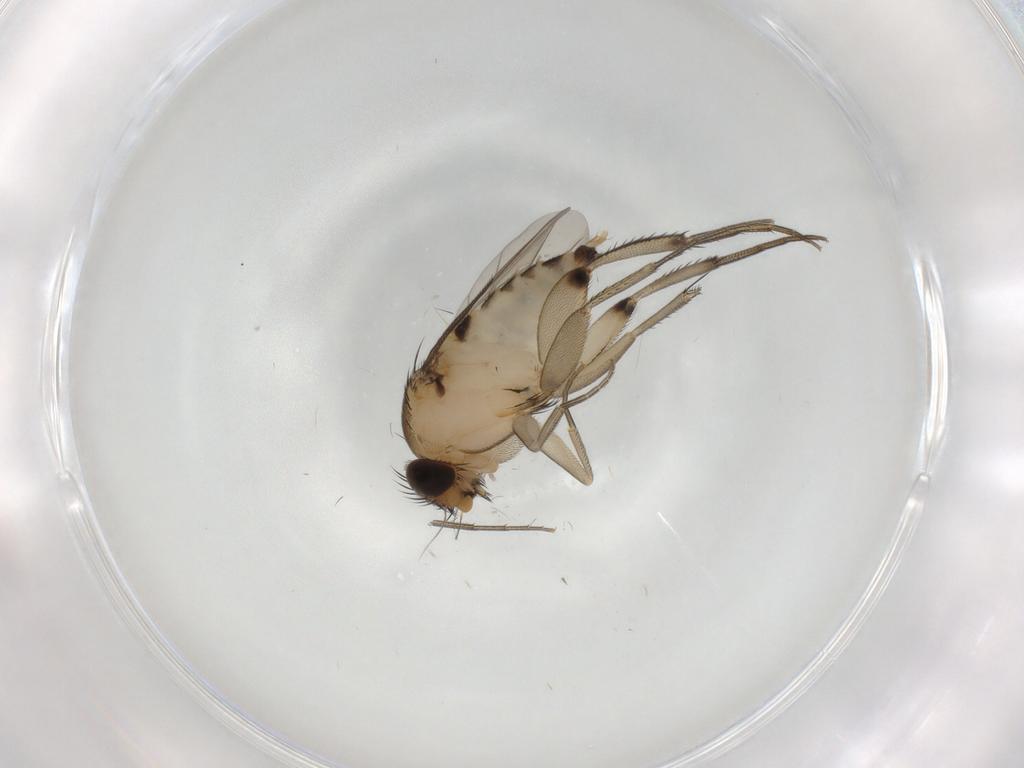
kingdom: Animalia
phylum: Arthropoda
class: Insecta
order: Diptera
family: Phoridae
